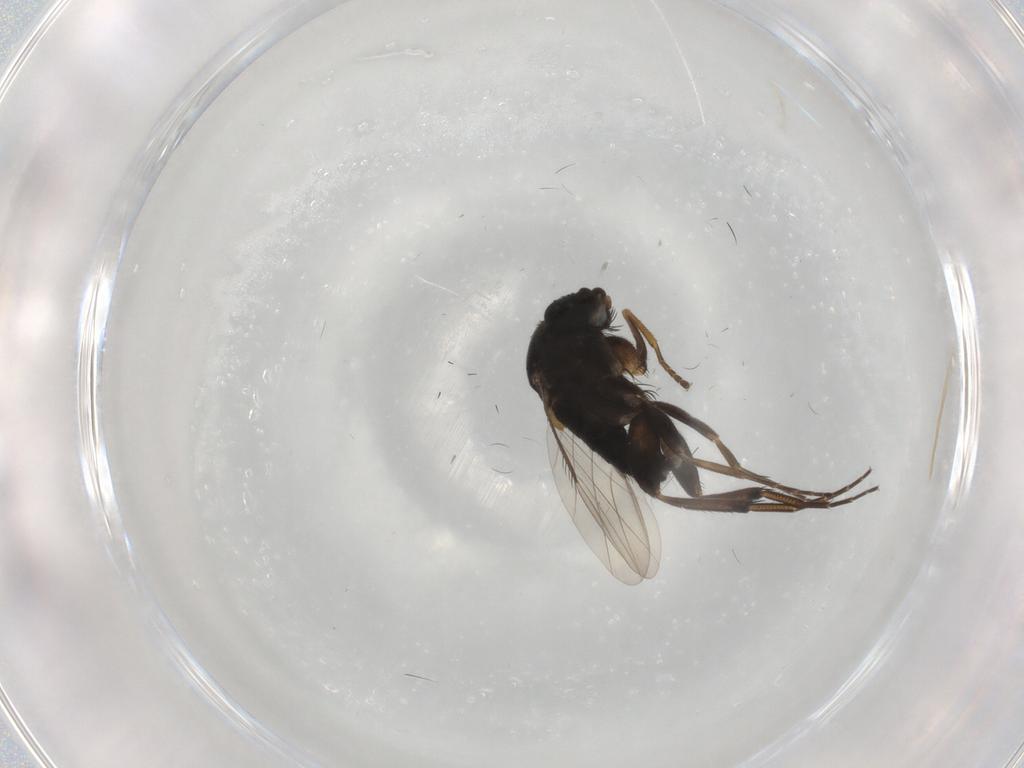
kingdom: Animalia
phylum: Arthropoda
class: Insecta
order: Diptera
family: Phoridae
